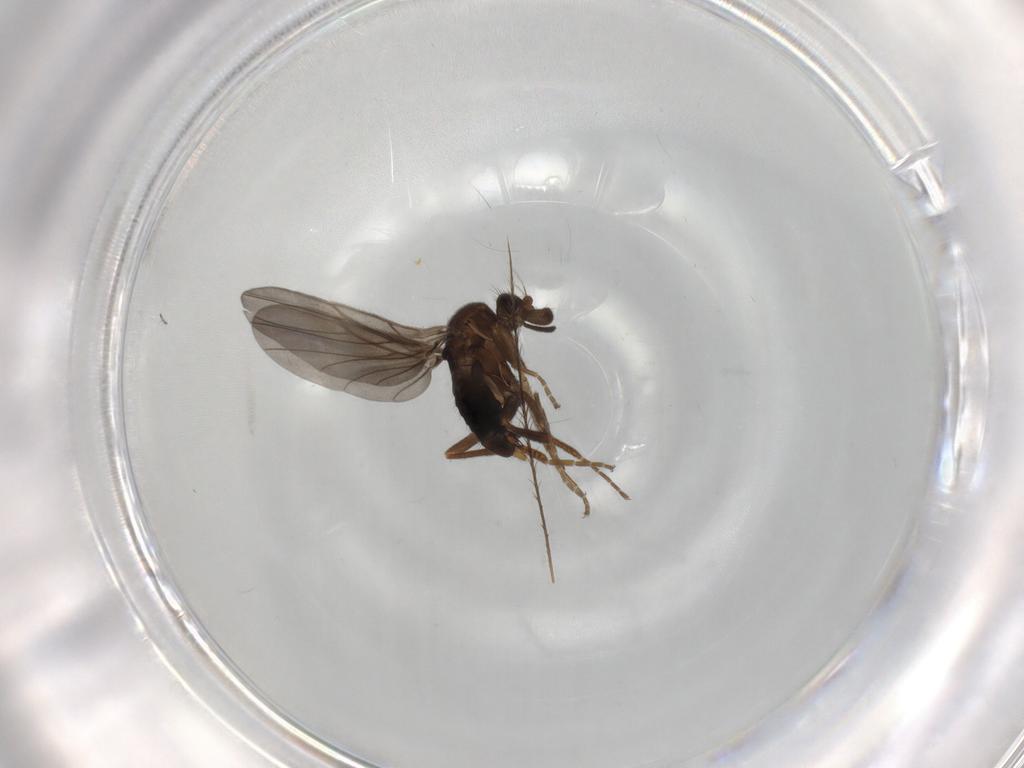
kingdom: Animalia
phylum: Arthropoda
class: Insecta
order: Diptera
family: Chironomidae
